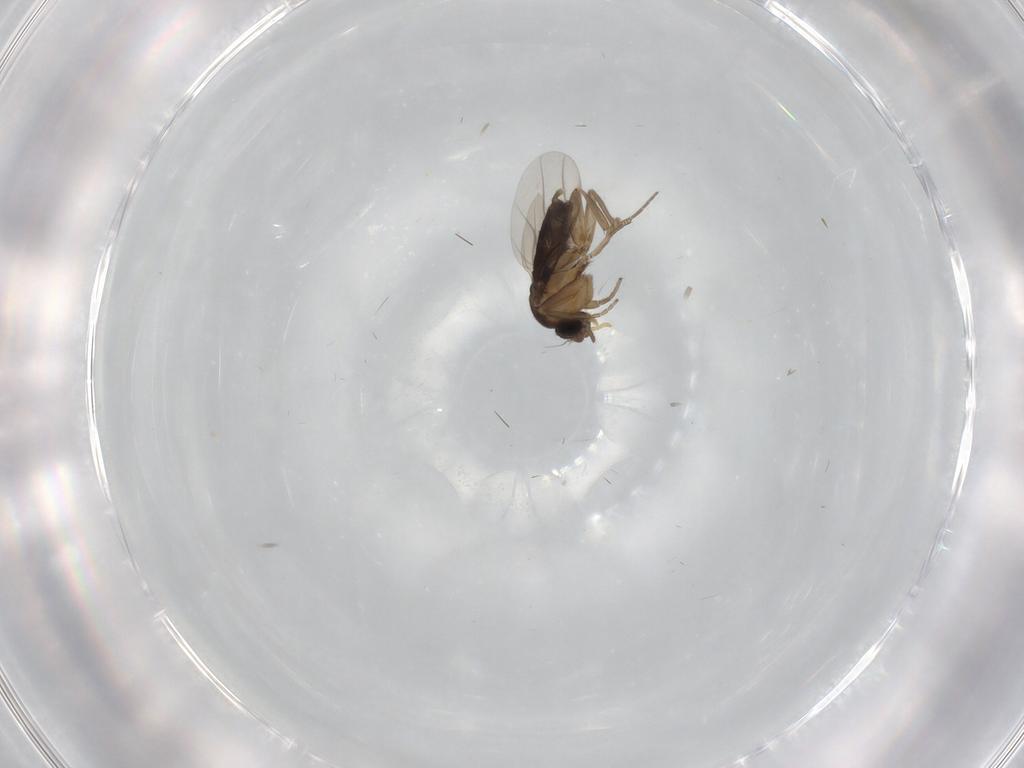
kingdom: Animalia
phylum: Arthropoda
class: Insecta
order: Diptera
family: Phoridae
